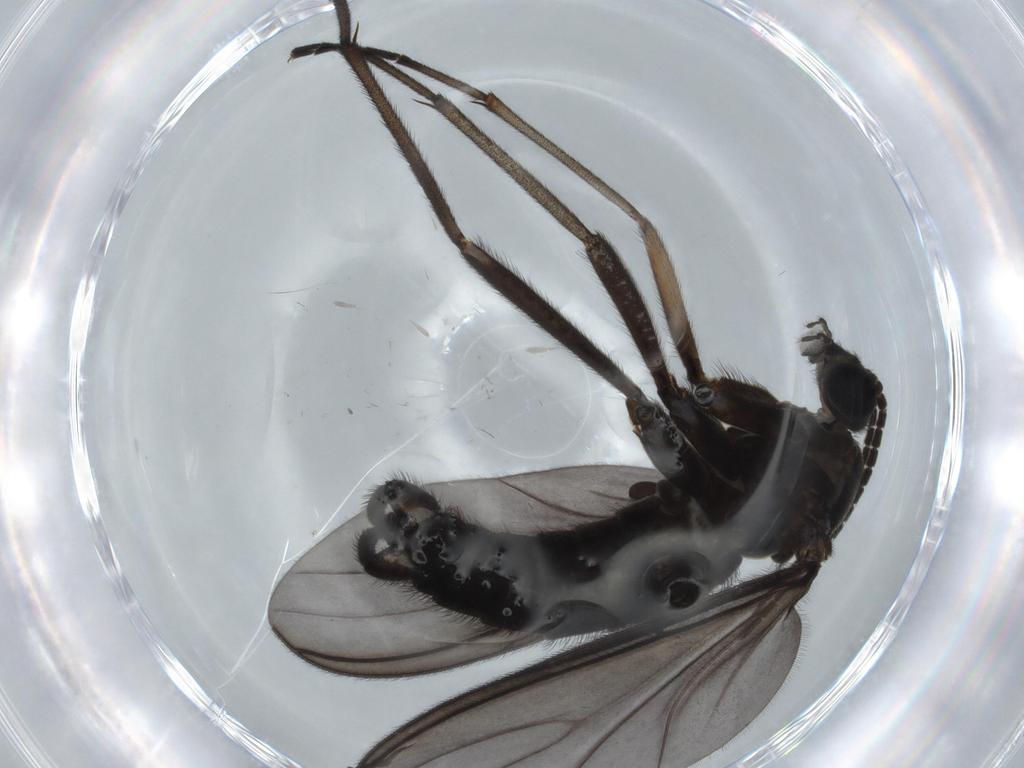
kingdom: Animalia
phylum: Arthropoda
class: Insecta
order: Diptera
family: Sciaridae
